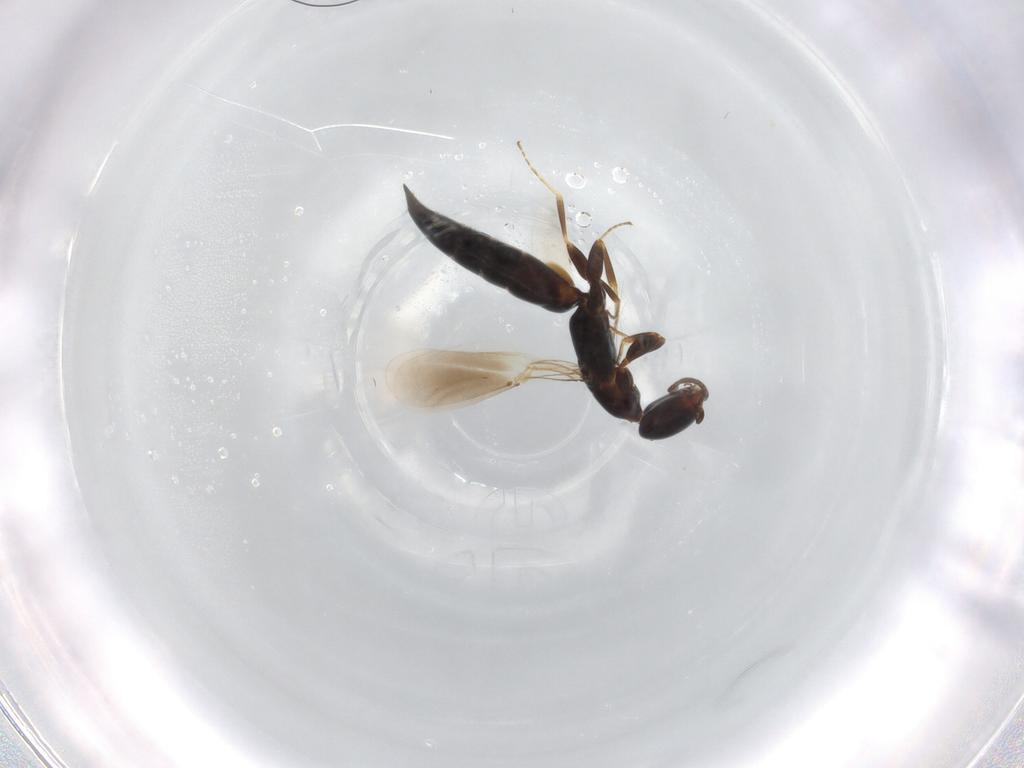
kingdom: Animalia
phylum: Arthropoda
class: Insecta
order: Hymenoptera
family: Bethylidae
